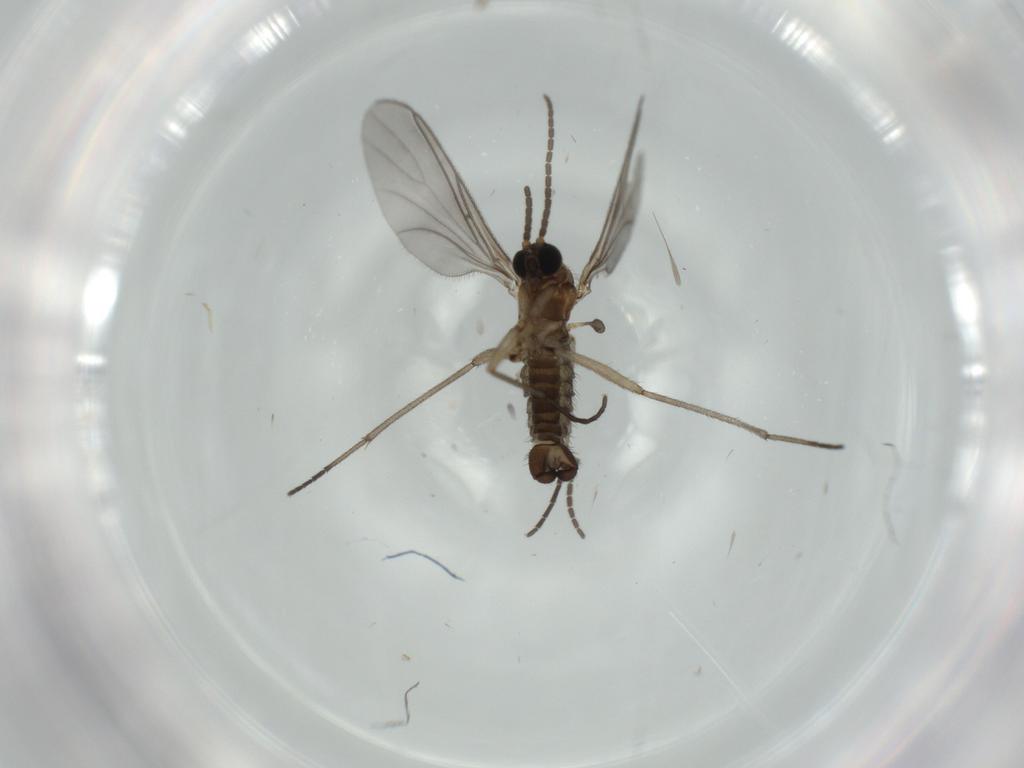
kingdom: Animalia
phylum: Arthropoda
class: Insecta
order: Diptera
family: Sciaridae
